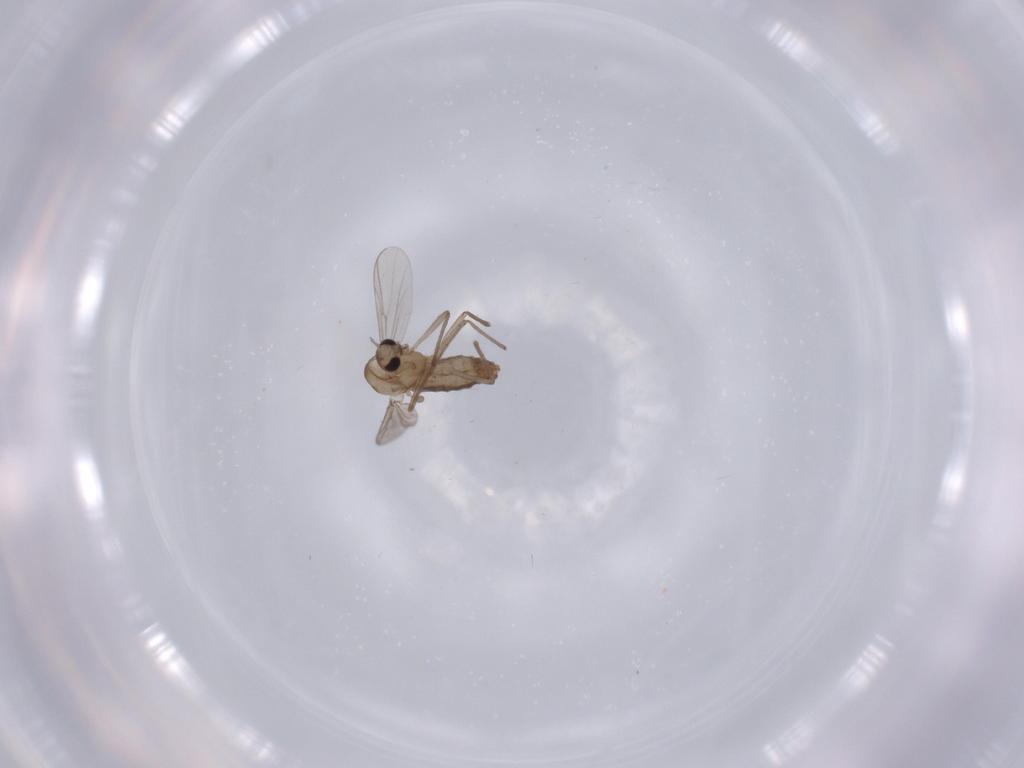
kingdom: Animalia
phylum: Arthropoda
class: Insecta
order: Diptera
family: Chironomidae
